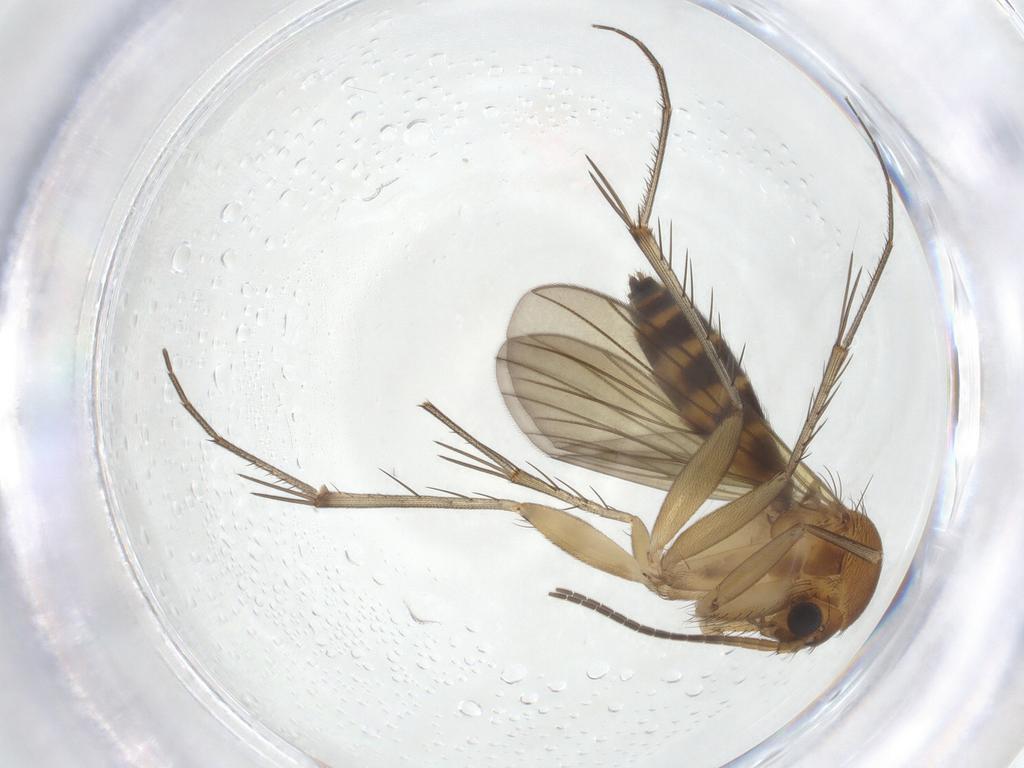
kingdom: Animalia
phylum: Arthropoda
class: Insecta
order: Diptera
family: Mycetophilidae
